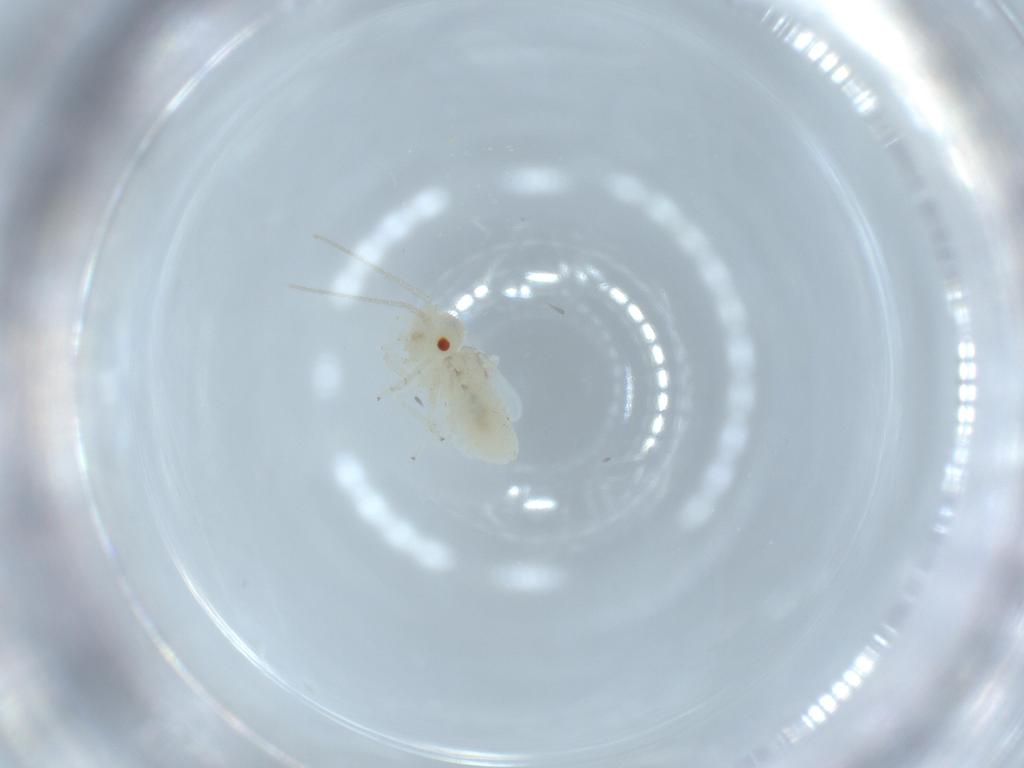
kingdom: Animalia
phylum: Arthropoda
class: Insecta
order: Psocodea
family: Caeciliusidae
